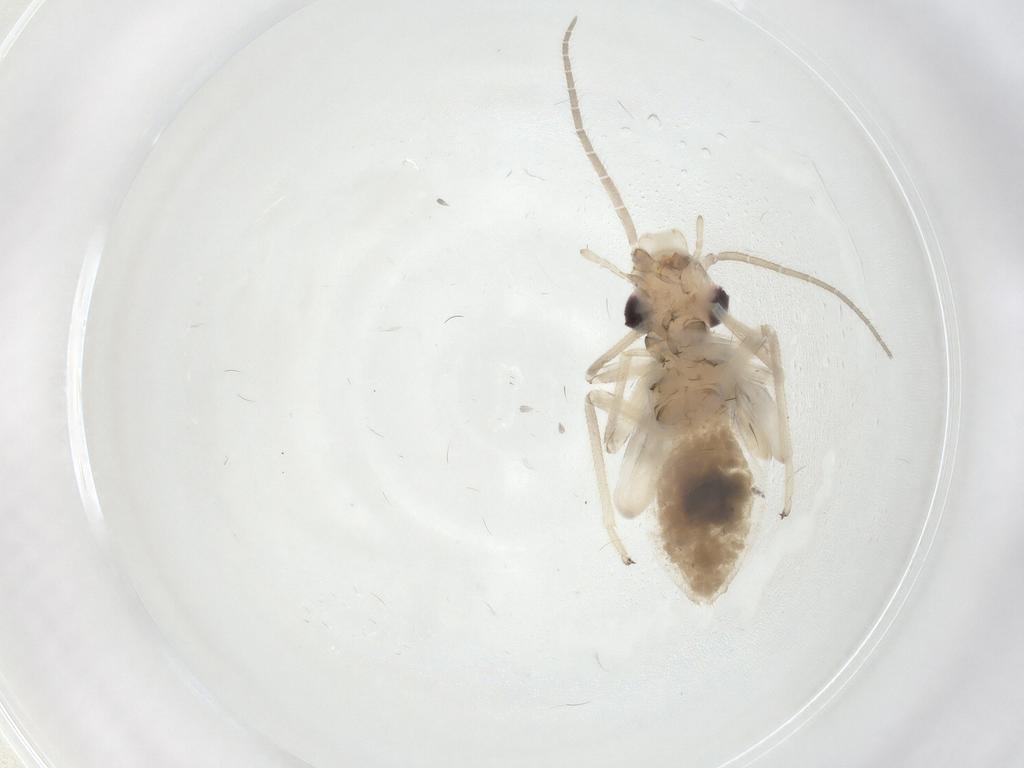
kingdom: Animalia
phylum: Arthropoda
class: Insecta
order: Psocodea
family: Amphipsocidae
